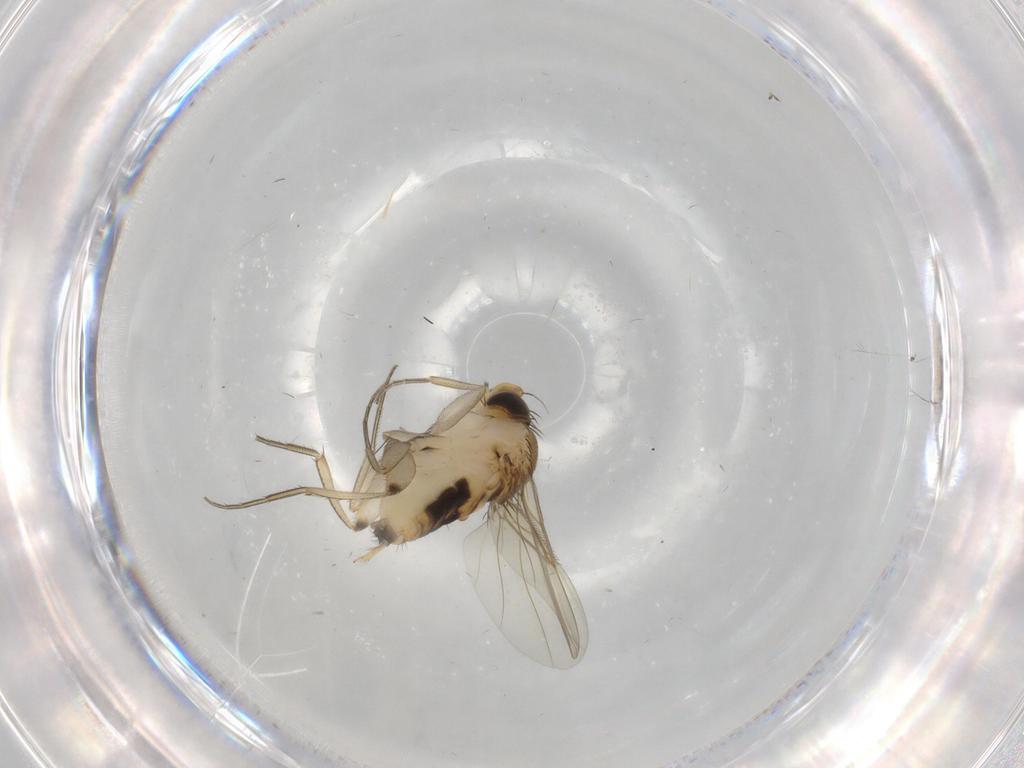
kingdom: Animalia
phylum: Arthropoda
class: Insecta
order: Diptera
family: Phoridae
